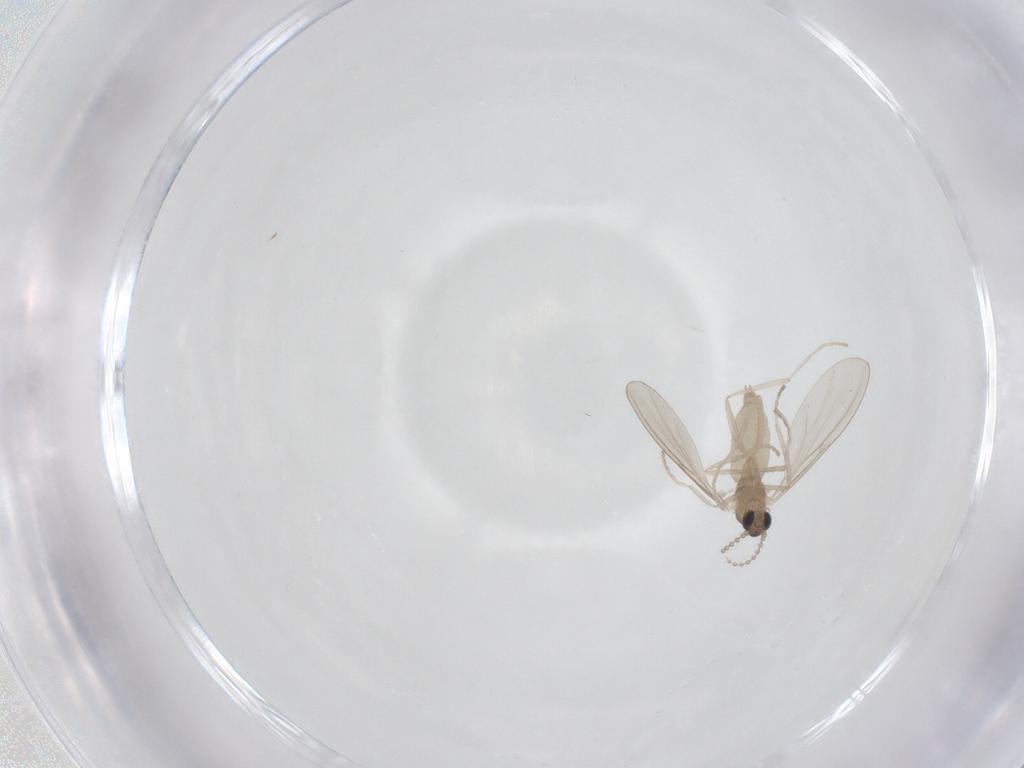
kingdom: Animalia
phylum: Arthropoda
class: Insecta
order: Diptera
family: Cecidomyiidae
